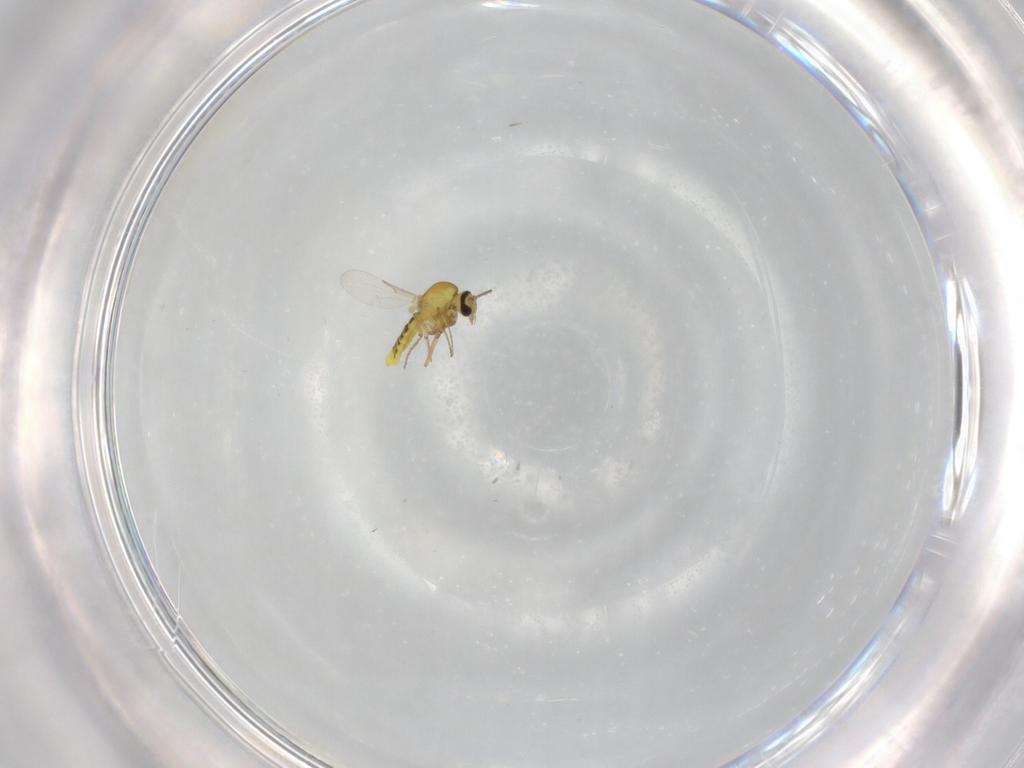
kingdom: Animalia
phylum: Arthropoda
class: Insecta
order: Diptera
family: Ceratopogonidae
